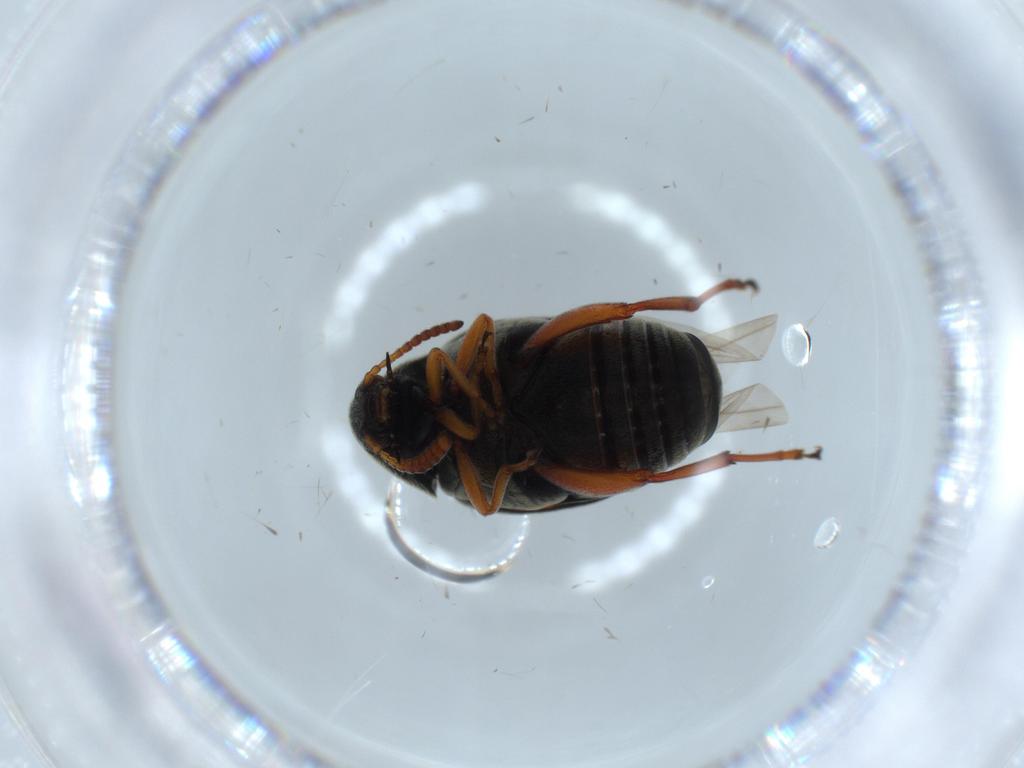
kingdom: Animalia
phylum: Arthropoda
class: Insecta
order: Coleoptera
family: Chrysomelidae
